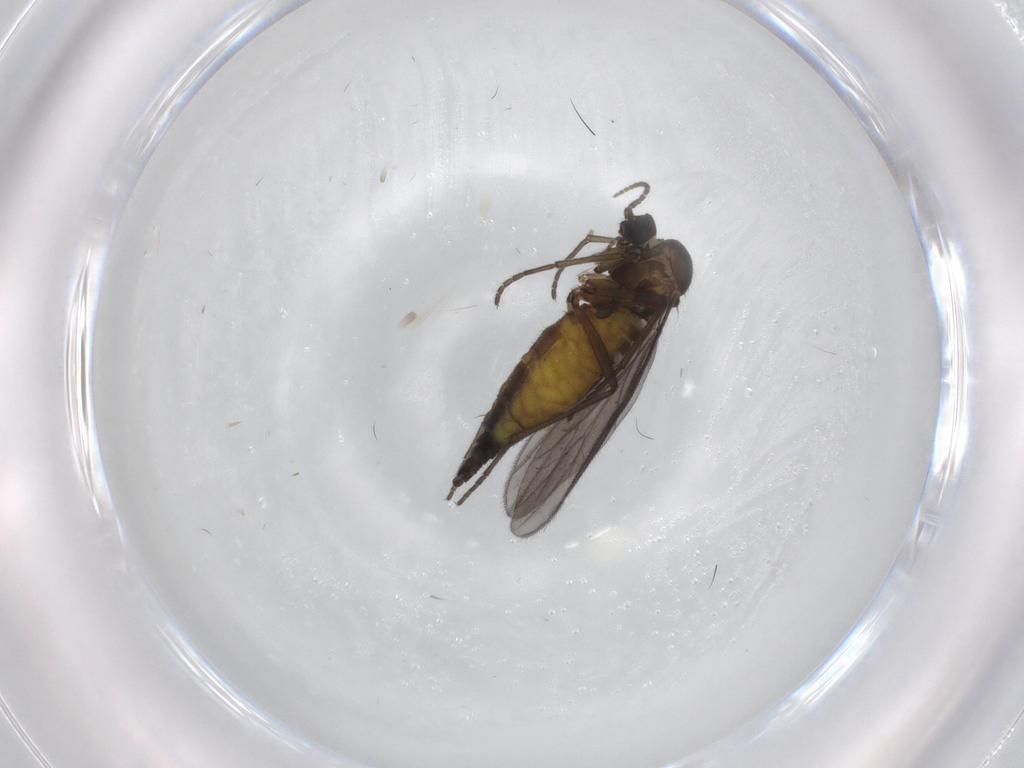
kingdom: Animalia
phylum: Arthropoda
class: Insecta
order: Diptera
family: Sciaridae
